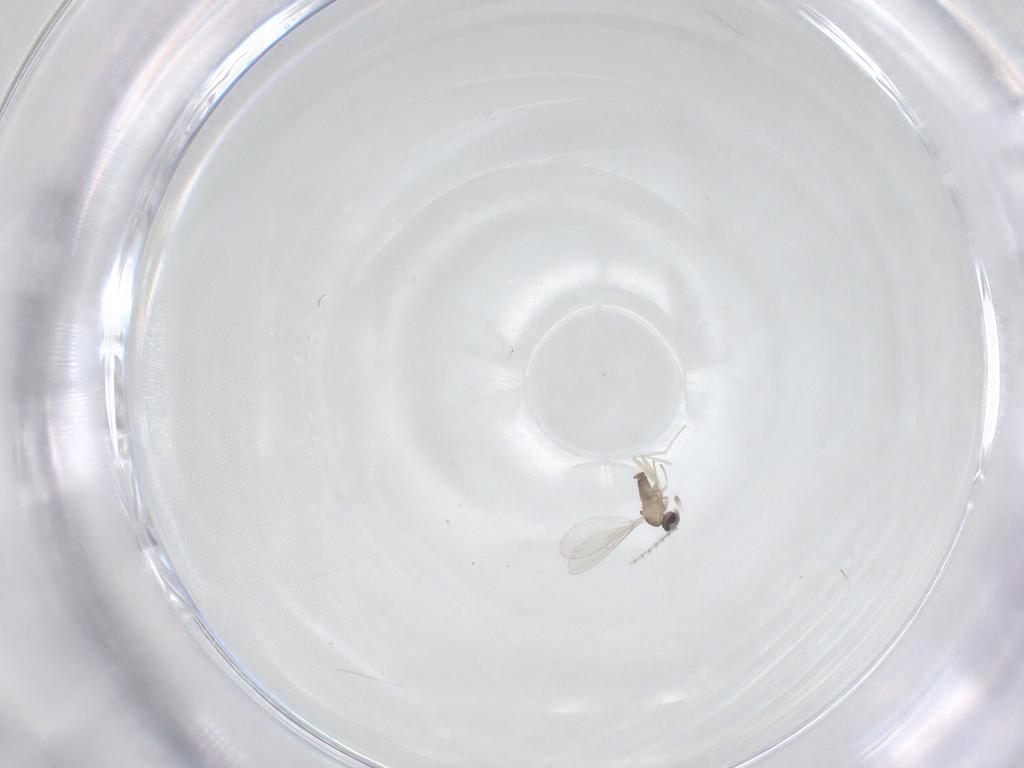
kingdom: Animalia
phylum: Arthropoda
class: Insecta
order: Diptera
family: Cecidomyiidae
